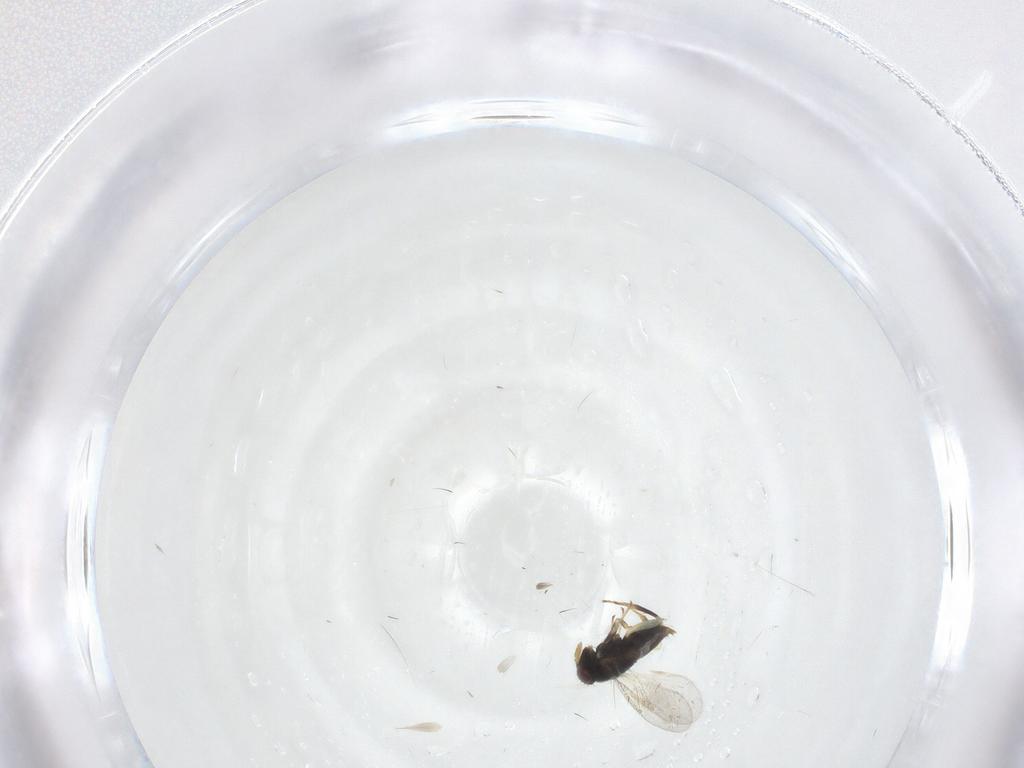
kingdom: Animalia
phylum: Arthropoda
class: Insecta
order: Hymenoptera
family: Aphelinidae
